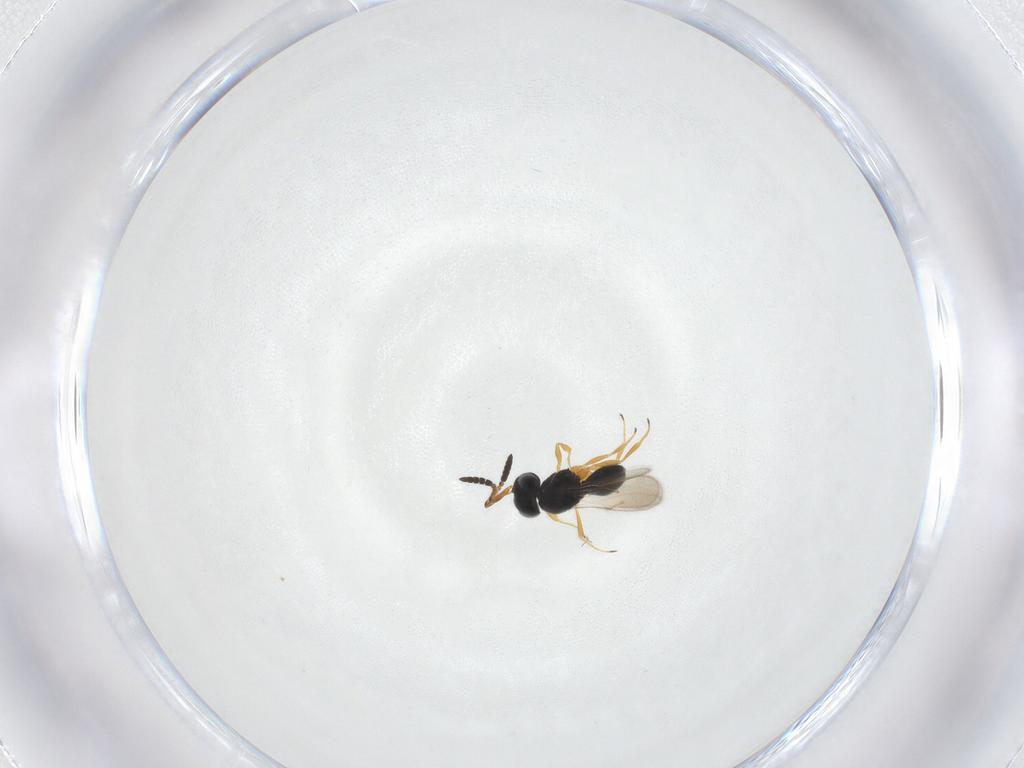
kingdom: Animalia
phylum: Arthropoda
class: Insecta
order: Hymenoptera
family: Scelionidae
